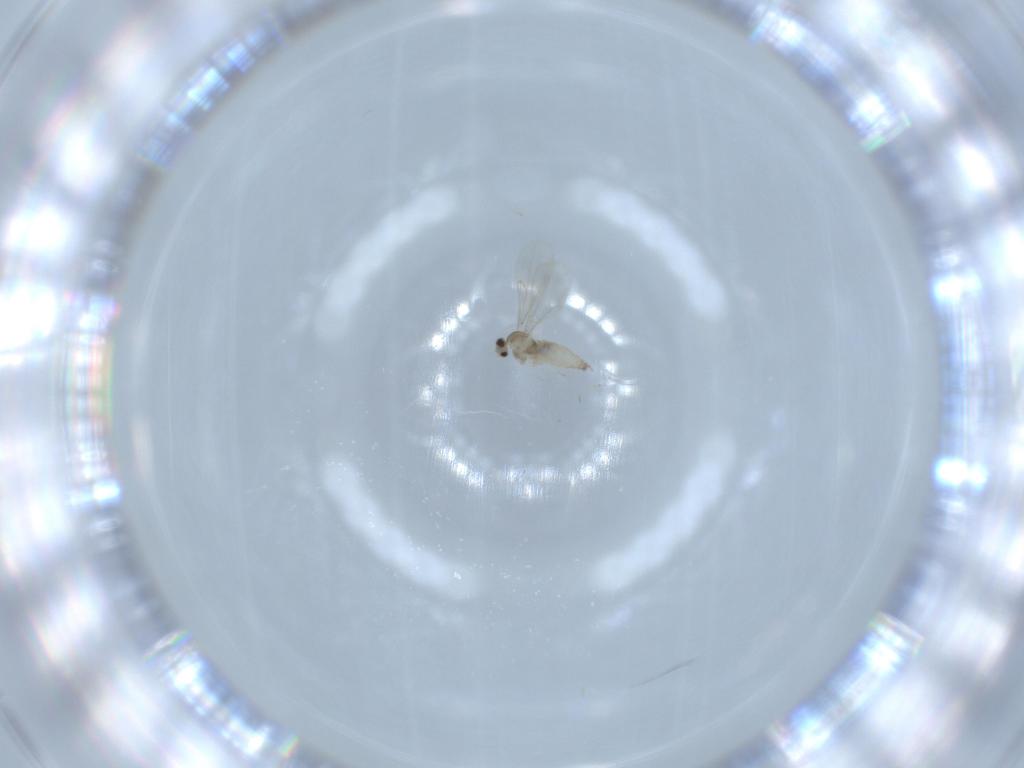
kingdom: Animalia
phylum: Arthropoda
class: Insecta
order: Diptera
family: Cecidomyiidae
